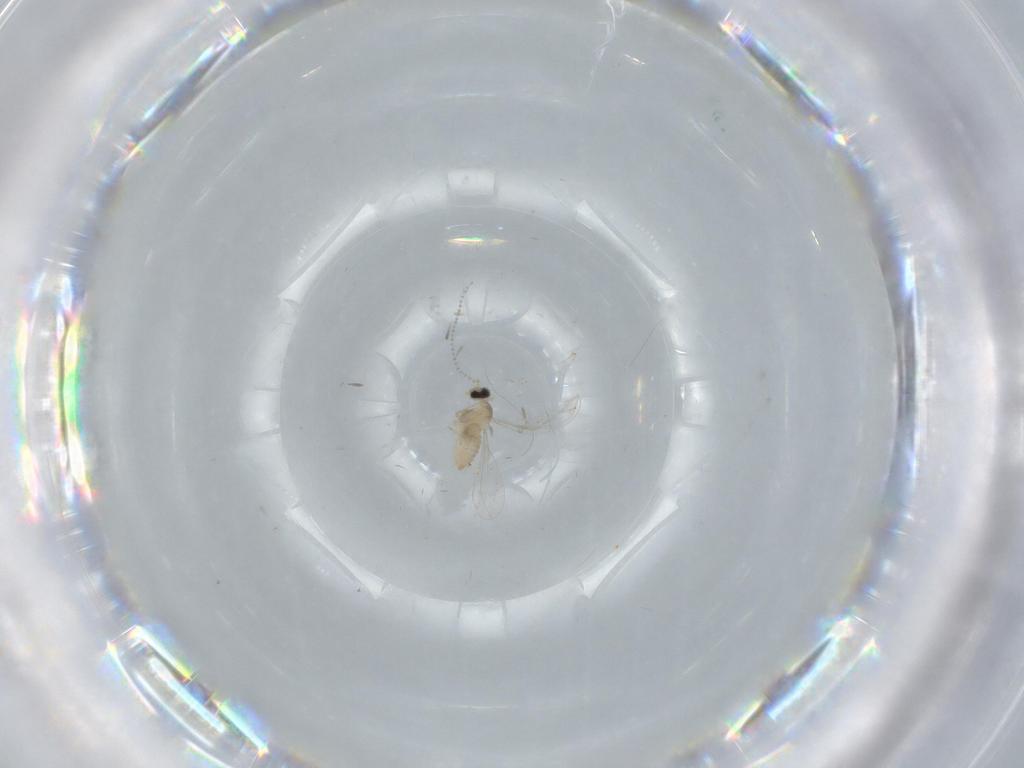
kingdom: Animalia
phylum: Arthropoda
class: Insecta
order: Diptera
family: Cecidomyiidae
